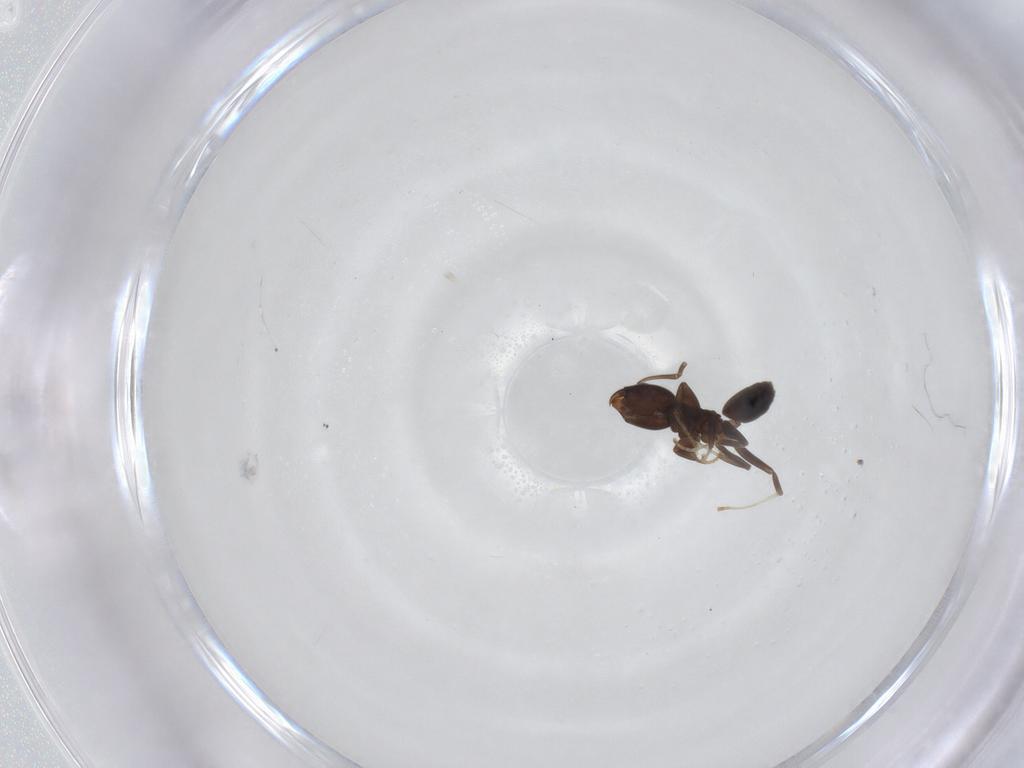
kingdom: Animalia
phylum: Arthropoda
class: Insecta
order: Hymenoptera
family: Formicidae
